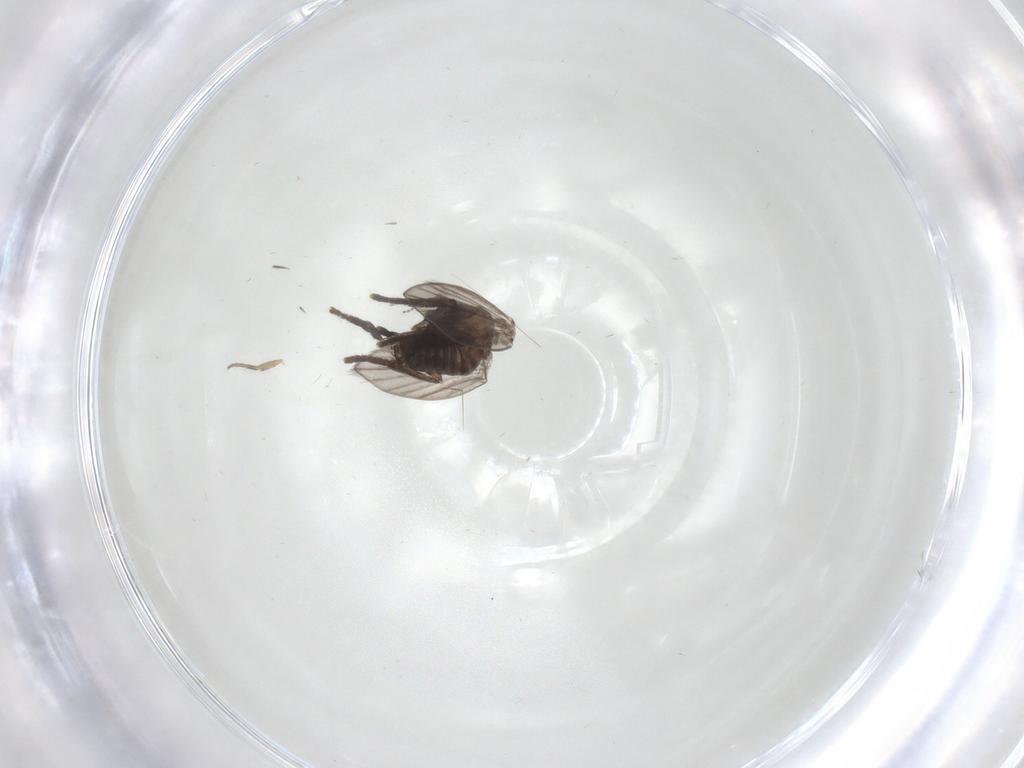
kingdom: Animalia
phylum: Arthropoda
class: Insecta
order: Diptera
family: Psychodidae
